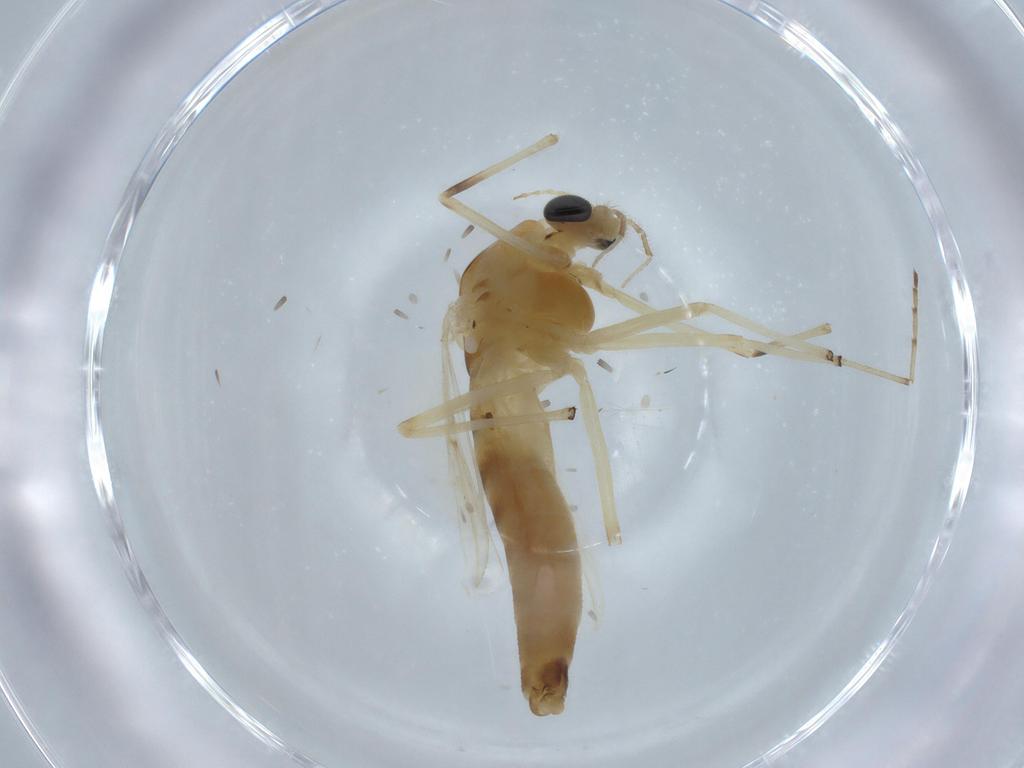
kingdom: Animalia
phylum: Arthropoda
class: Insecta
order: Diptera
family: Chironomidae
